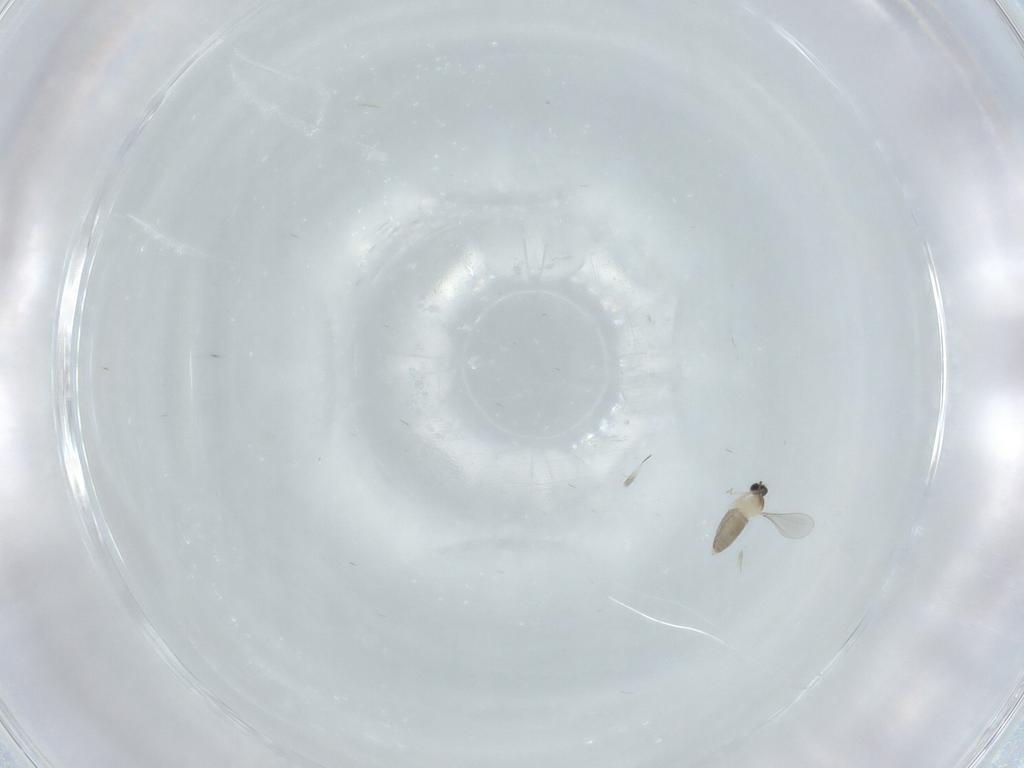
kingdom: Animalia
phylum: Arthropoda
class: Insecta
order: Diptera
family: Cecidomyiidae
